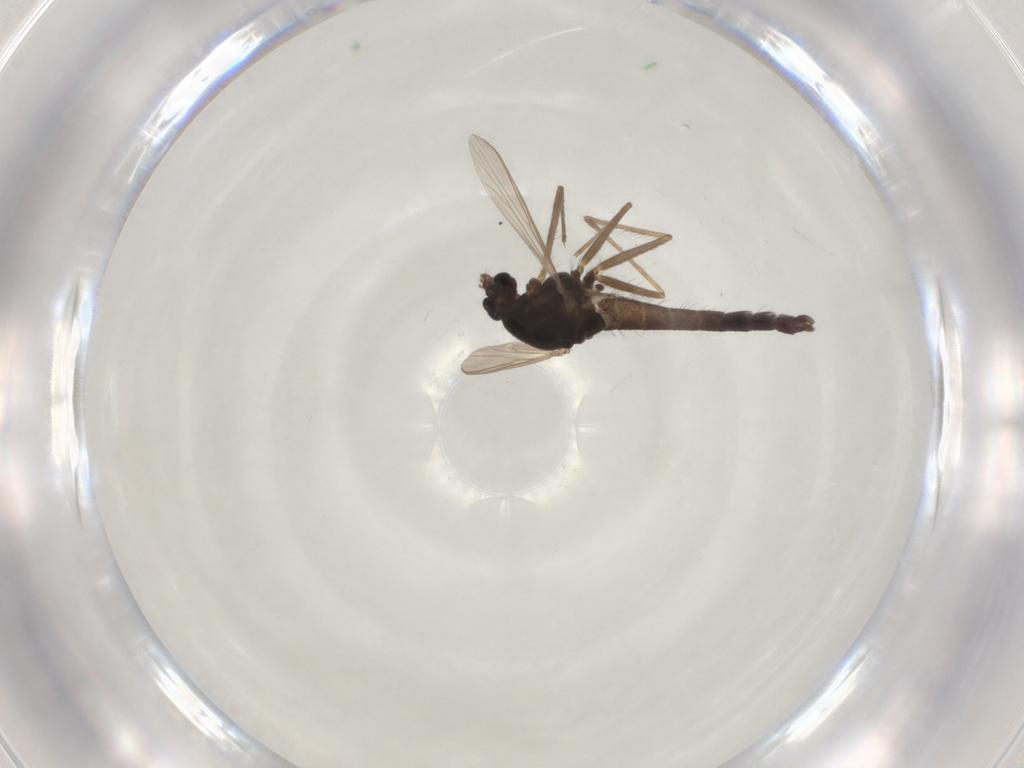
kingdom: Animalia
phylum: Arthropoda
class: Insecta
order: Diptera
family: Chironomidae
